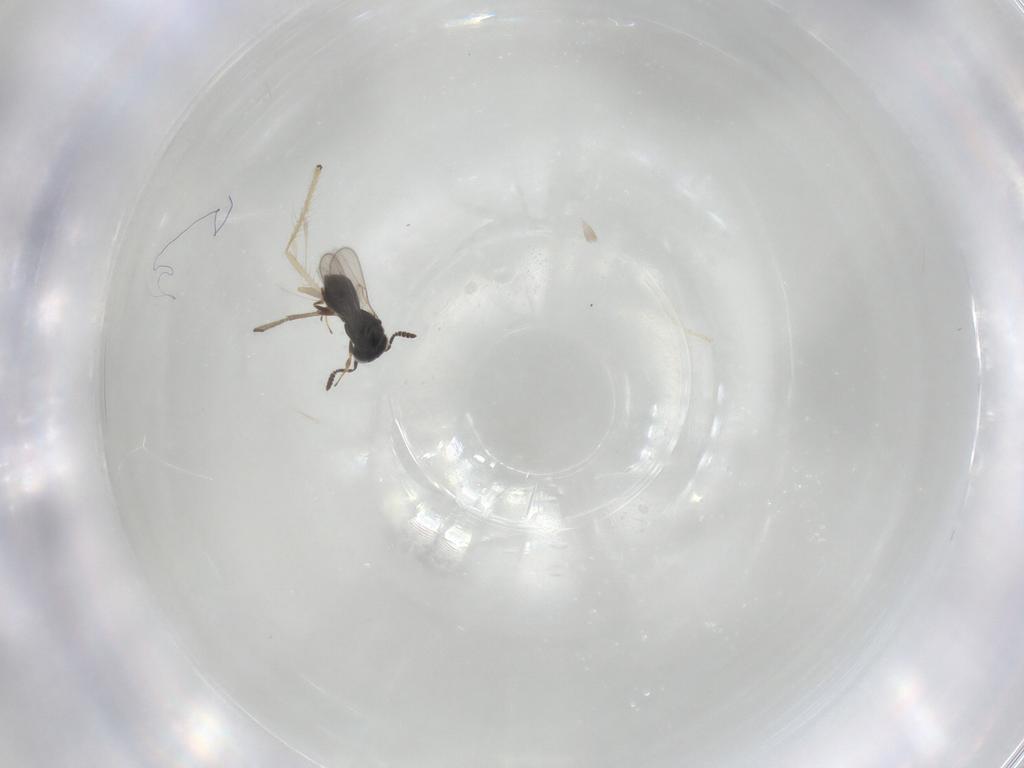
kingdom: Animalia
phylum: Arthropoda
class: Insecta
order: Hymenoptera
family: Scelionidae
